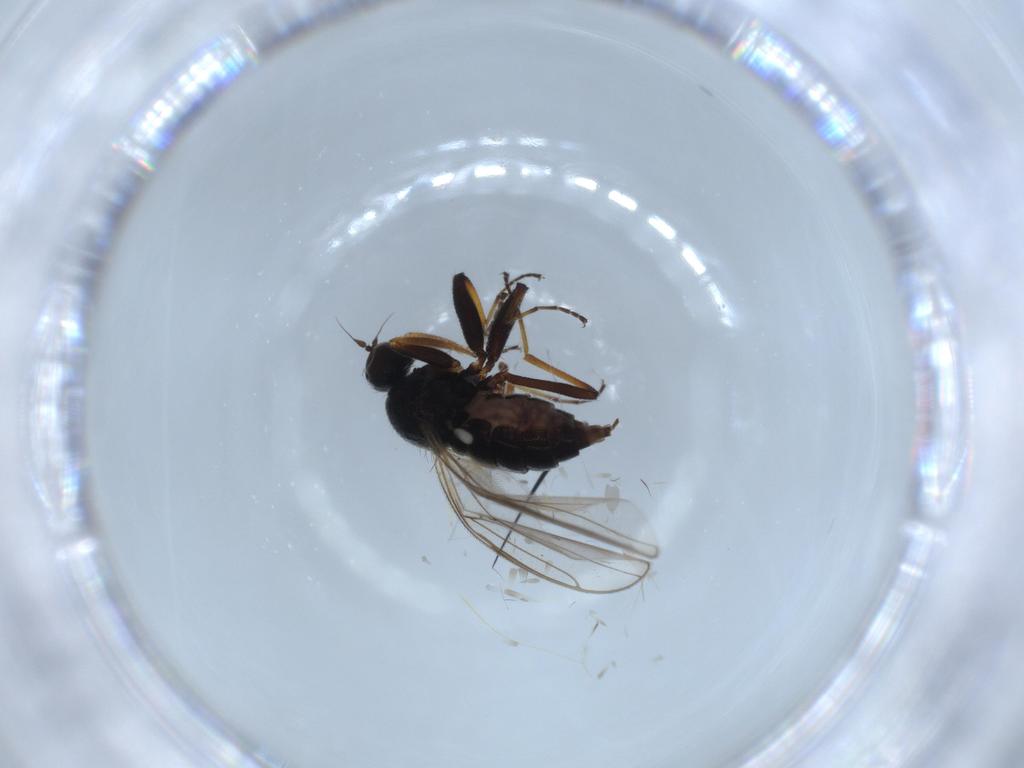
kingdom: Animalia
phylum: Arthropoda
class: Insecta
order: Diptera
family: Hybotidae
